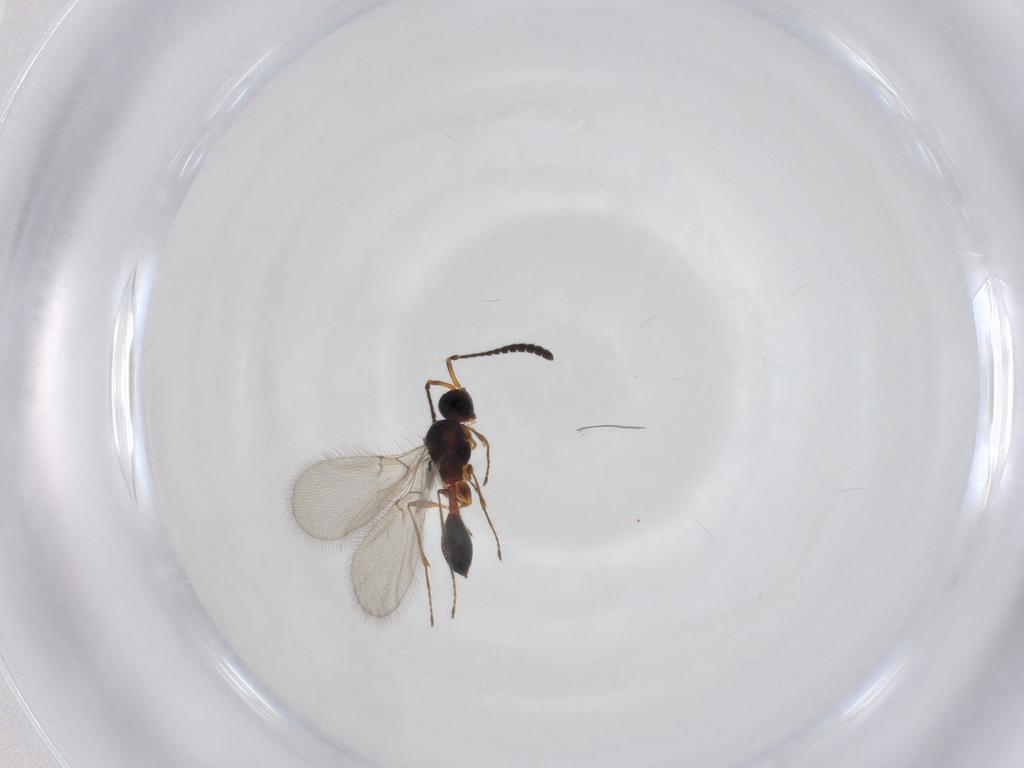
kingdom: Animalia
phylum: Arthropoda
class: Insecta
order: Hymenoptera
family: Diapriidae
